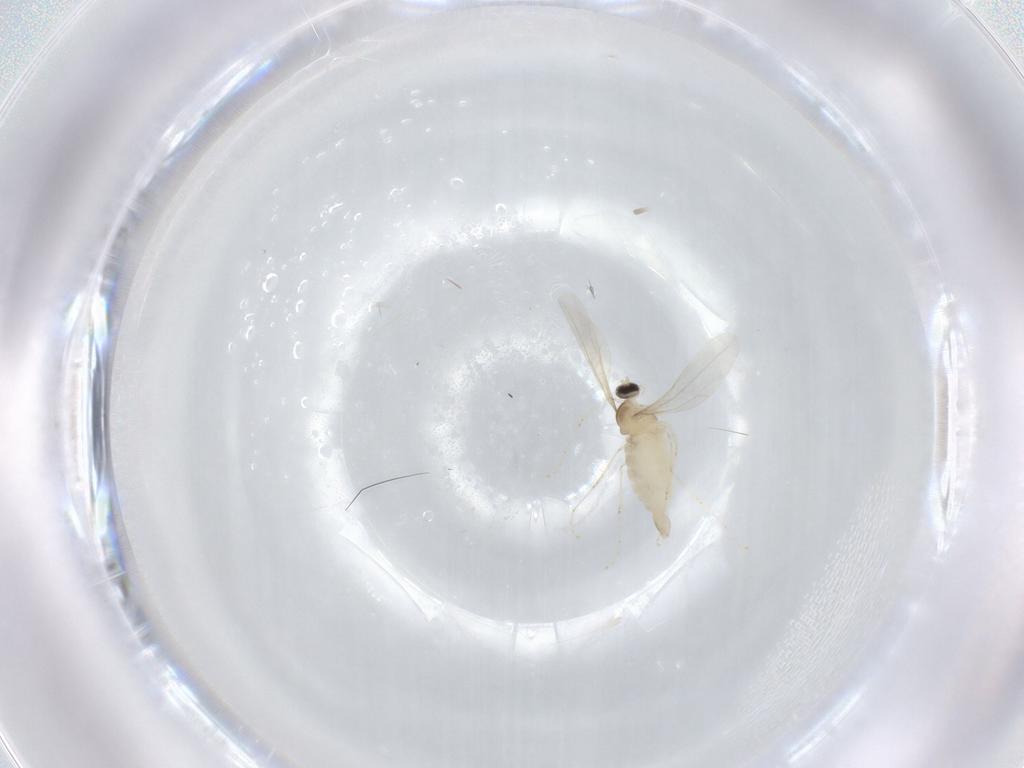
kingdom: Animalia
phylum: Arthropoda
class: Insecta
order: Diptera
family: Cecidomyiidae
